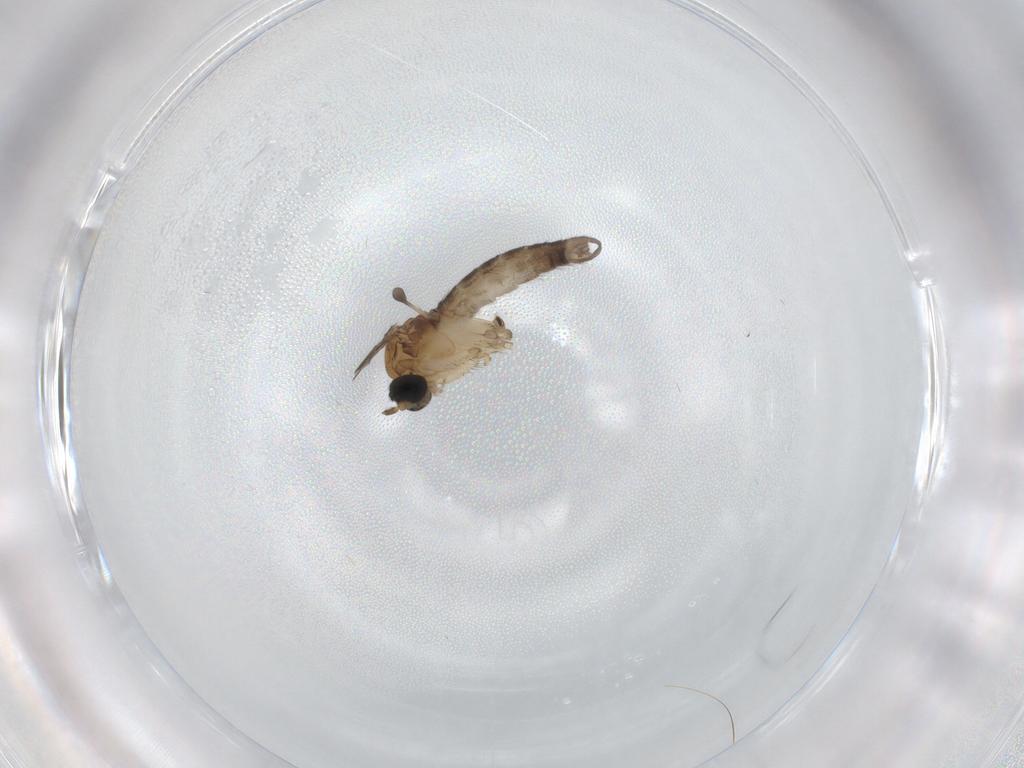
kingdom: Animalia
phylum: Arthropoda
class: Insecta
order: Diptera
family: Sciaridae
